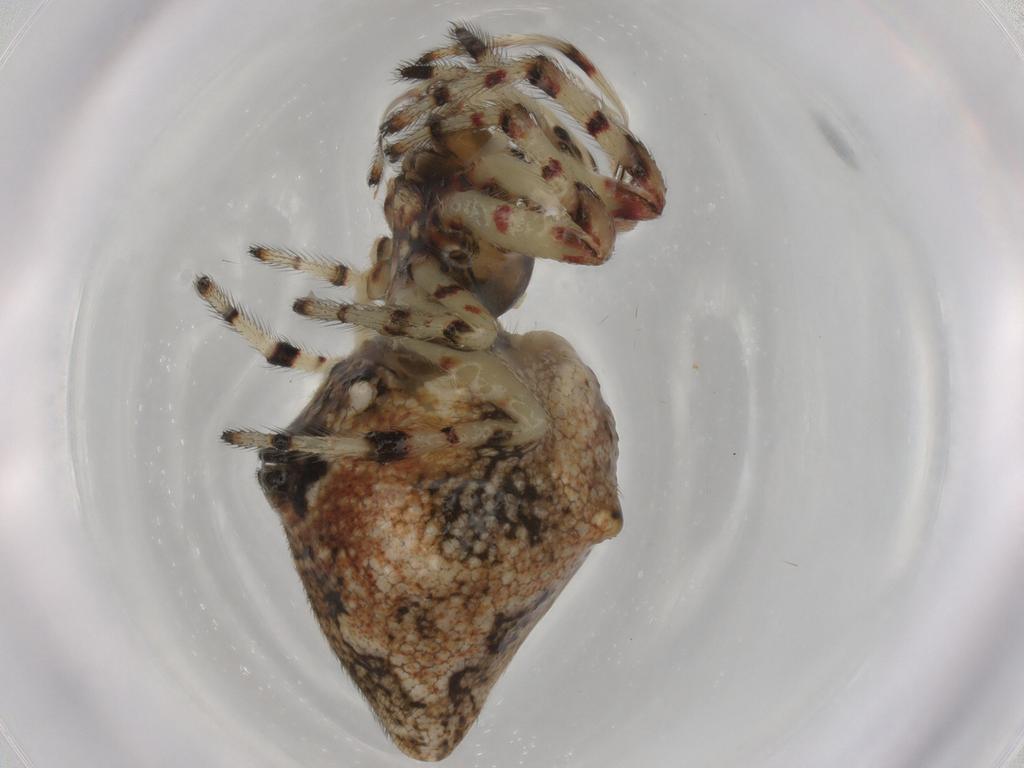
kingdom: Animalia
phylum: Arthropoda
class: Arachnida
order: Araneae
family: Araneidae
